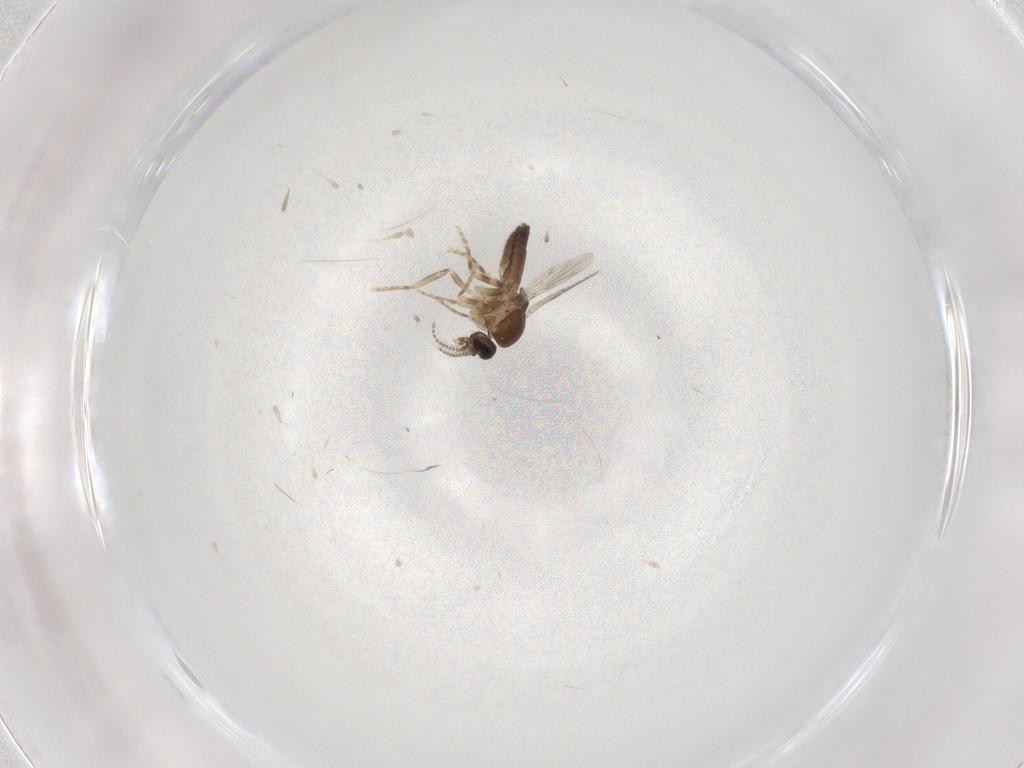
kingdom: Animalia
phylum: Arthropoda
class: Insecta
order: Diptera
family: Ceratopogonidae
